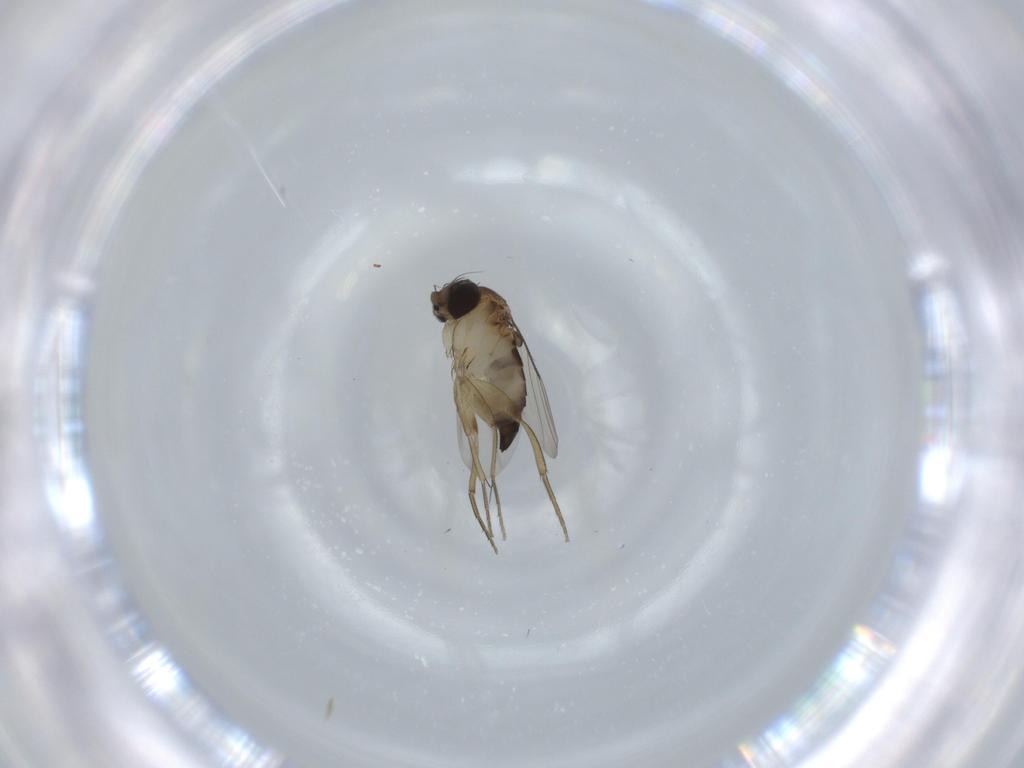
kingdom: Animalia
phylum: Arthropoda
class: Insecta
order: Diptera
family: Phoridae
